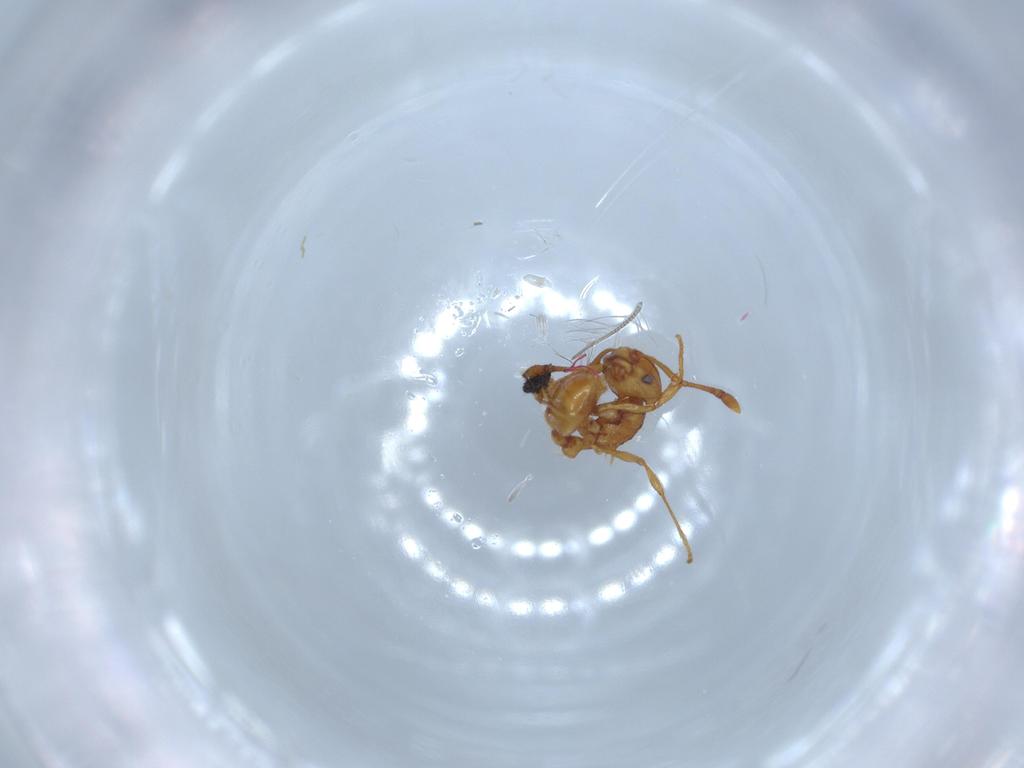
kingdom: Animalia
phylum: Arthropoda
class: Insecta
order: Hymenoptera
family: Formicidae
